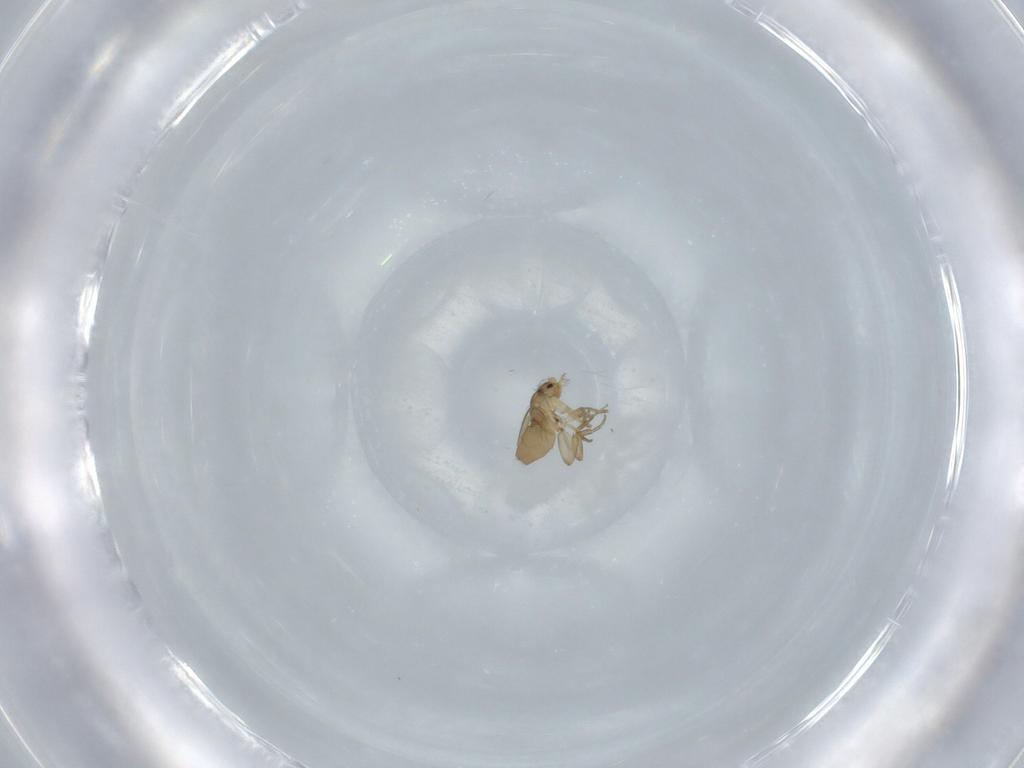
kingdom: Animalia
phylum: Arthropoda
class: Insecta
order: Diptera
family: Phoridae
